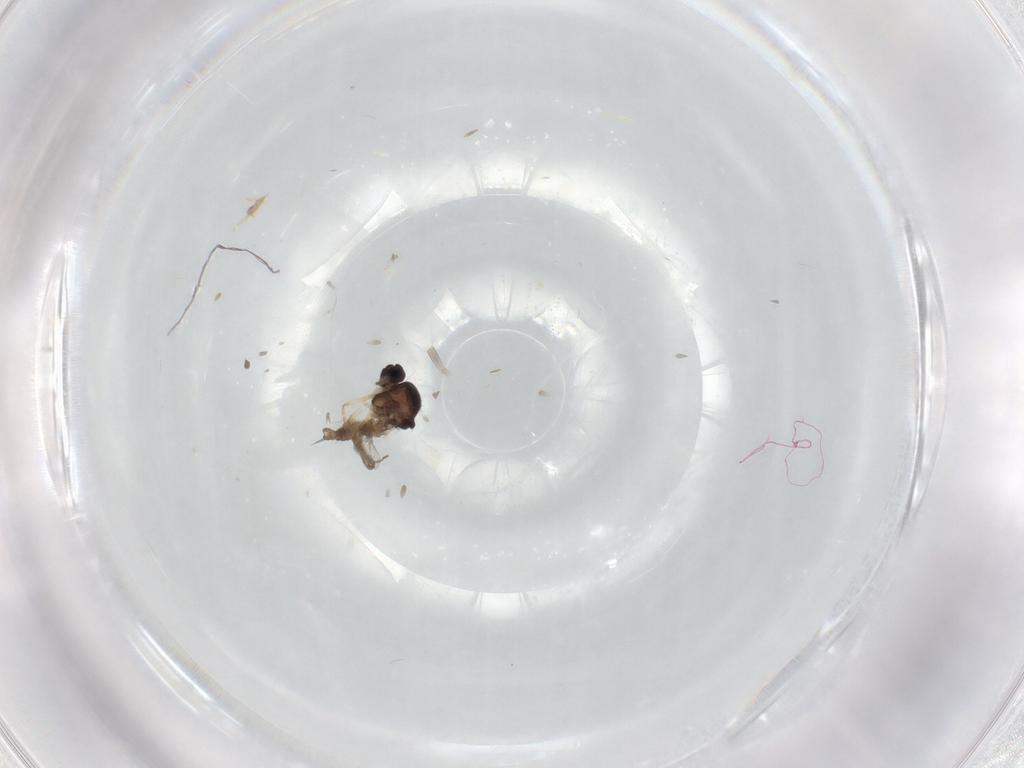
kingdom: Animalia
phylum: Arthropoda
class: Insecta
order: Diptera
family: Ceratopogonidae
